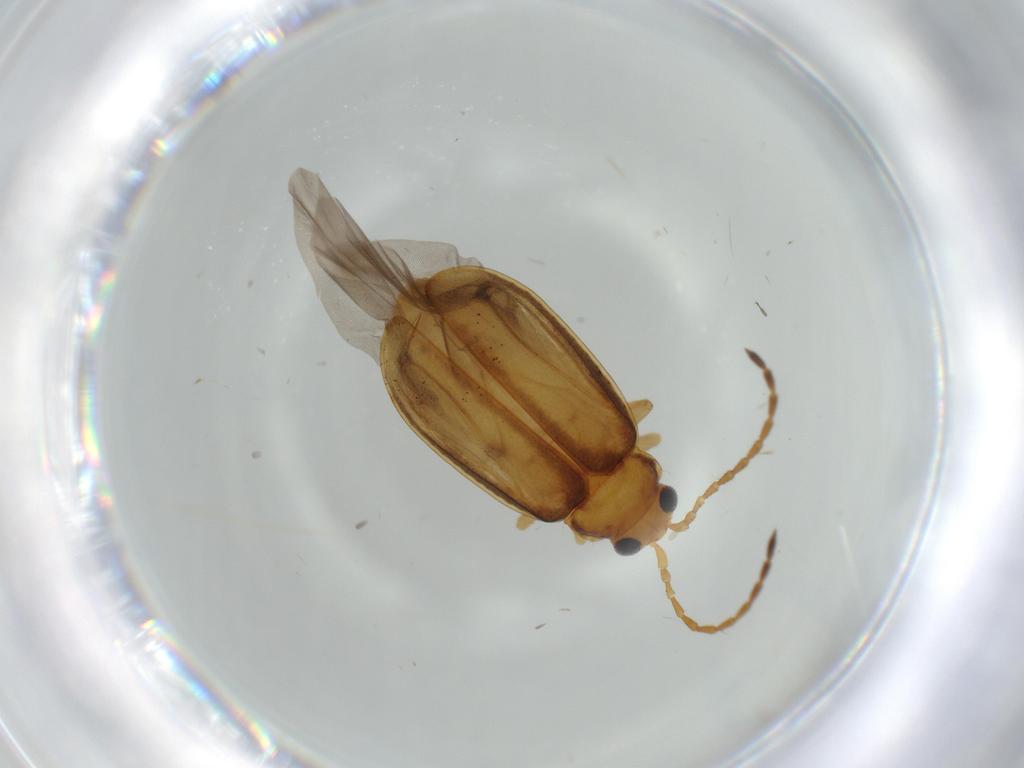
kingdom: Animalia
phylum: Arthropoda
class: Insecta
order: Coleoptera
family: Chrysomelidae
